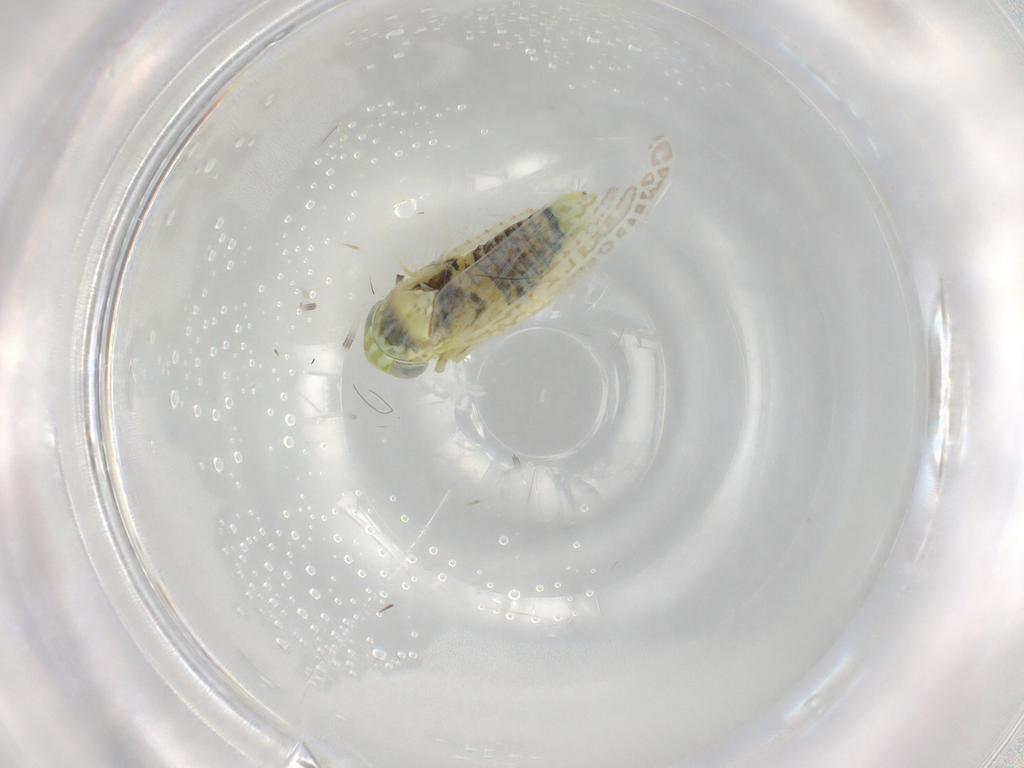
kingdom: Animalia
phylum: Arthropoda
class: Insecta
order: Hemiptera
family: Cicadellidae
